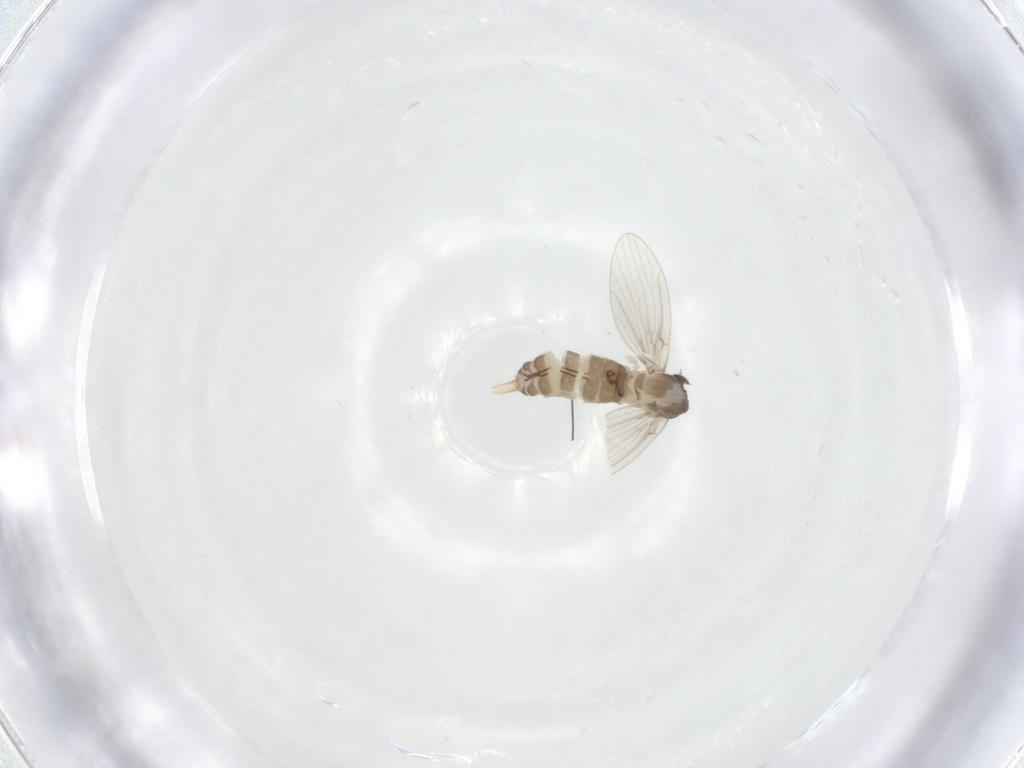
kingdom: Animalia
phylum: Arthropoda
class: Insecta
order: Diptera
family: Psychodidae
